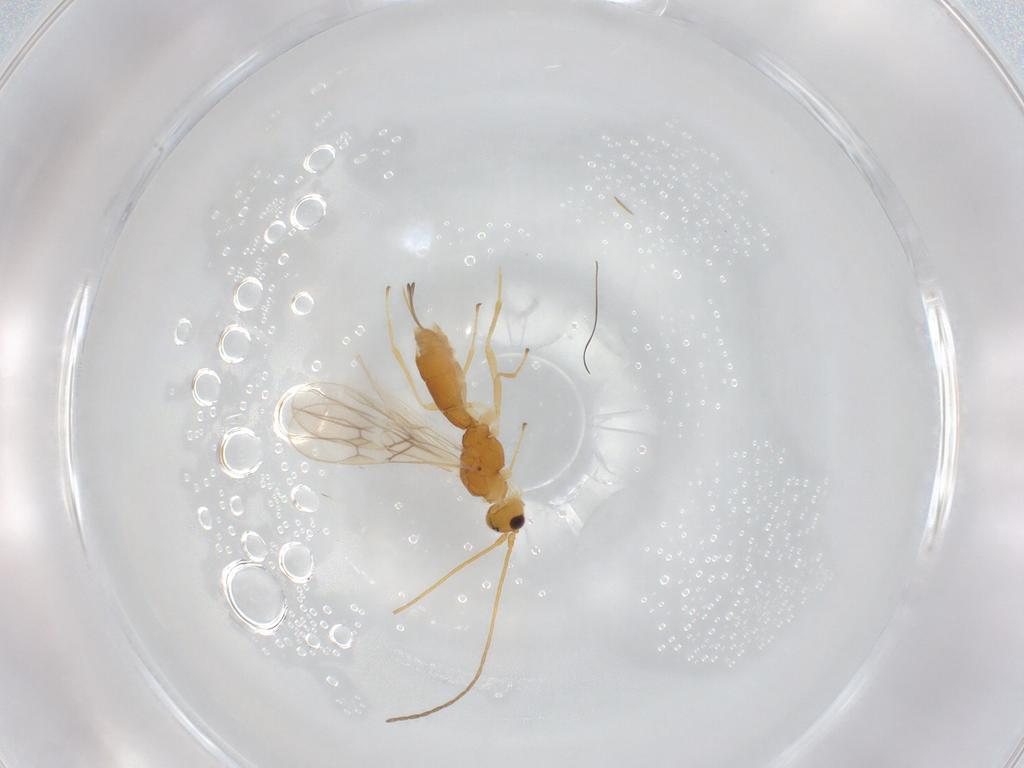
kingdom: Animalia
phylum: Arthropoda
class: Insecta
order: Hymenoptera
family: Braconidae
